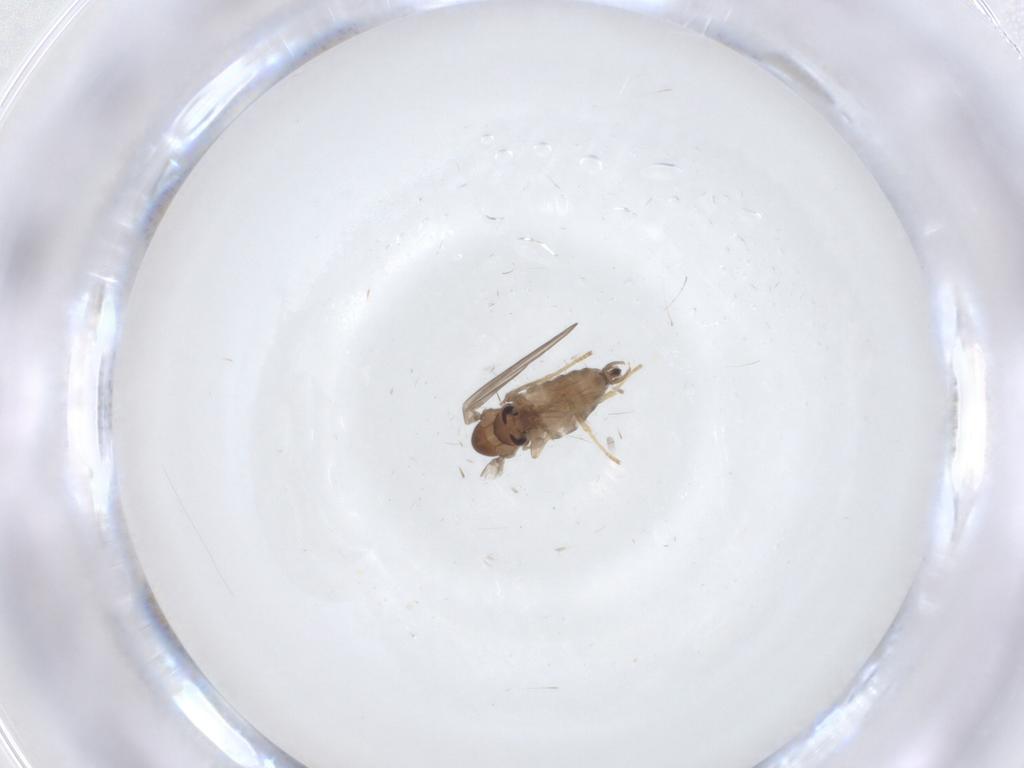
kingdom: Animalia
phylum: Arthropoda
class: Insecta
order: Diptera
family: Psychodidae
